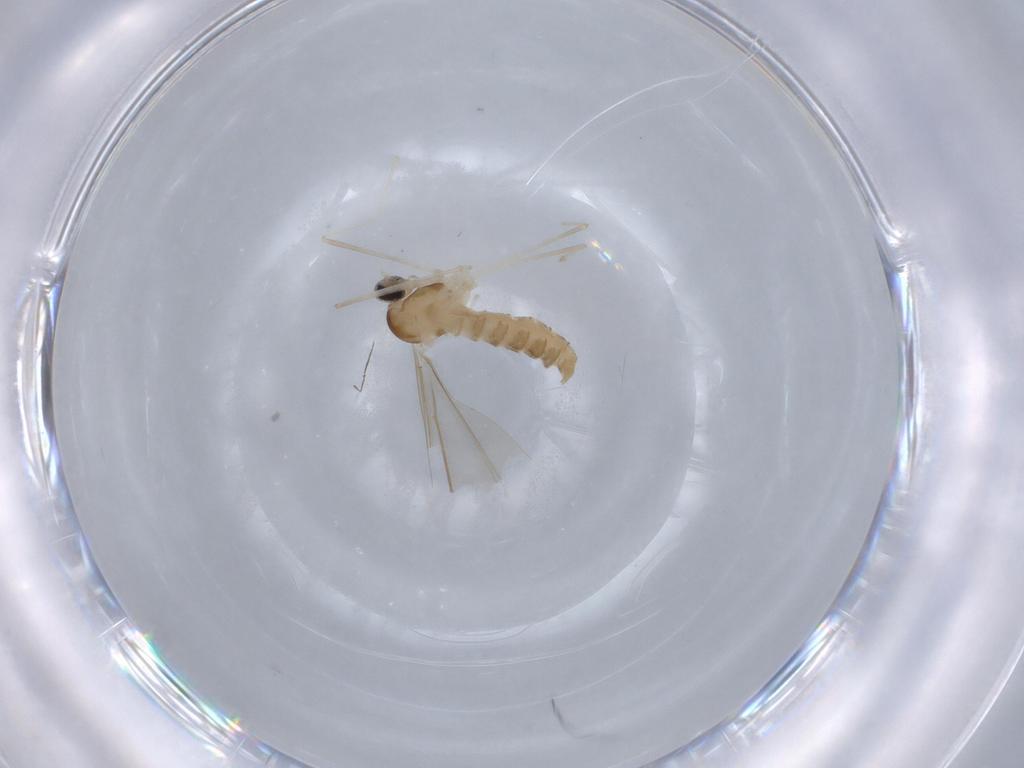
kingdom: Animalia
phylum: Arthropoda
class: Insecta
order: Diptera
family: Cecidomyiidae
